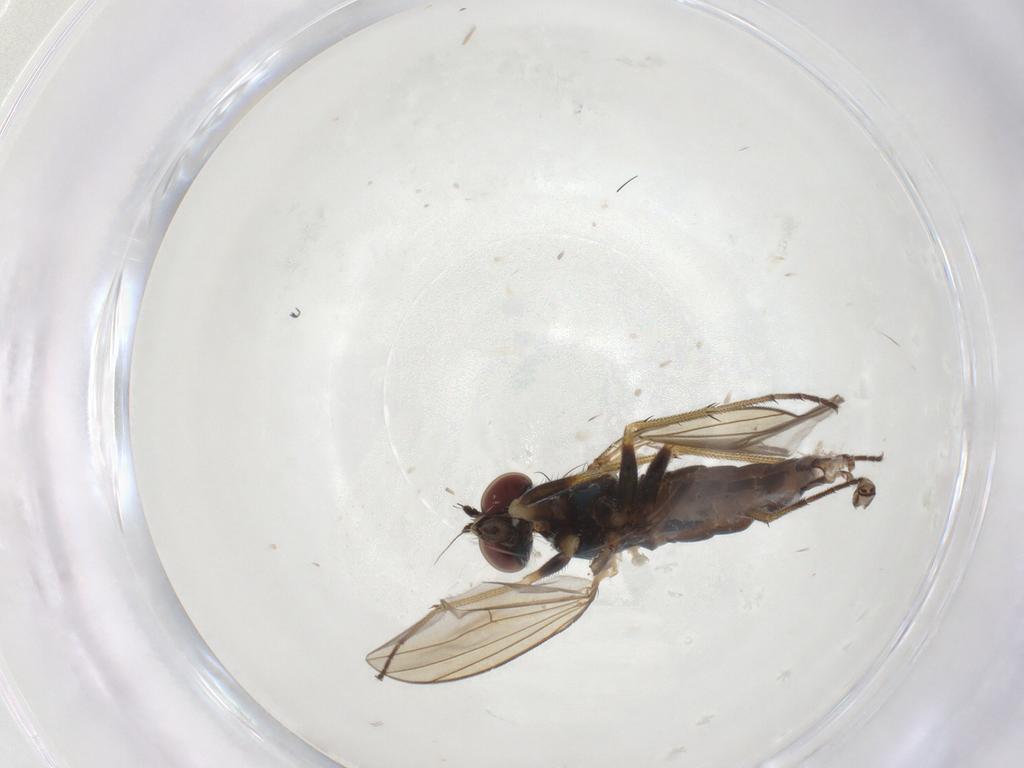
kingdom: Animalia
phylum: Arthropoda
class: Insecta
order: Diptera
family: Dolichopodidae
